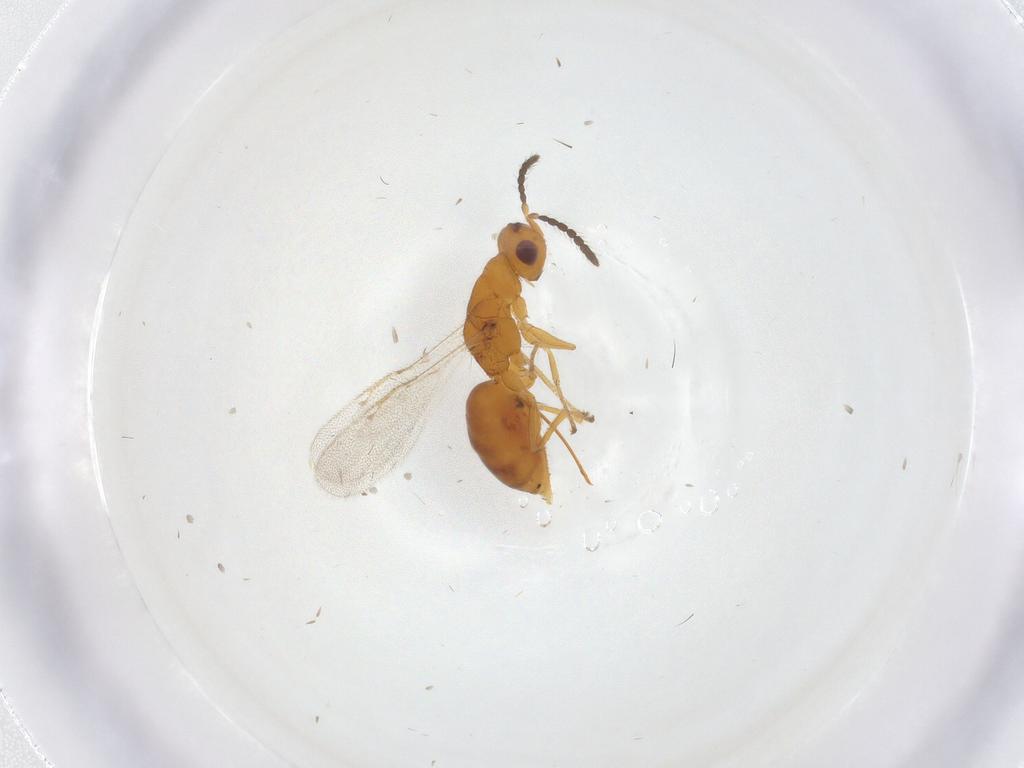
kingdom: Animalia
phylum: Arthropoda
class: Insecta
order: Hymenoptera
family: Eurytomidae
